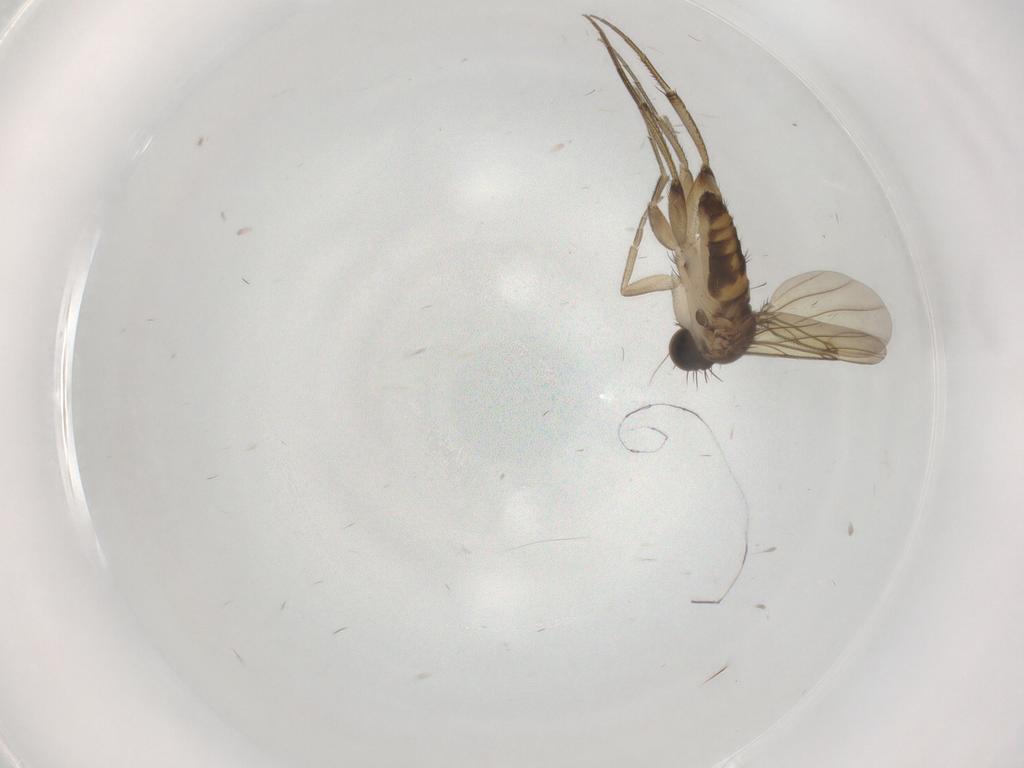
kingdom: Animalia
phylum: Arthropoda
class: Insecta
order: Diptera
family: Phoridae
